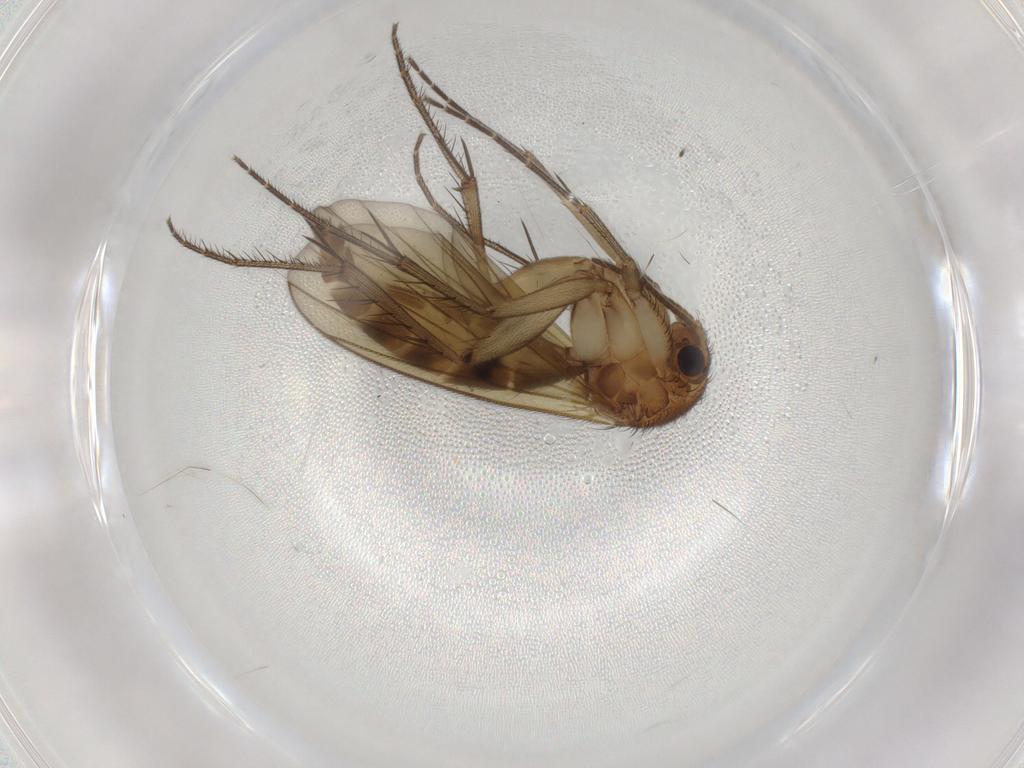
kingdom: Animalia
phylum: Arthropoda
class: Insecta
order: Diptera
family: Mycetophilidae
